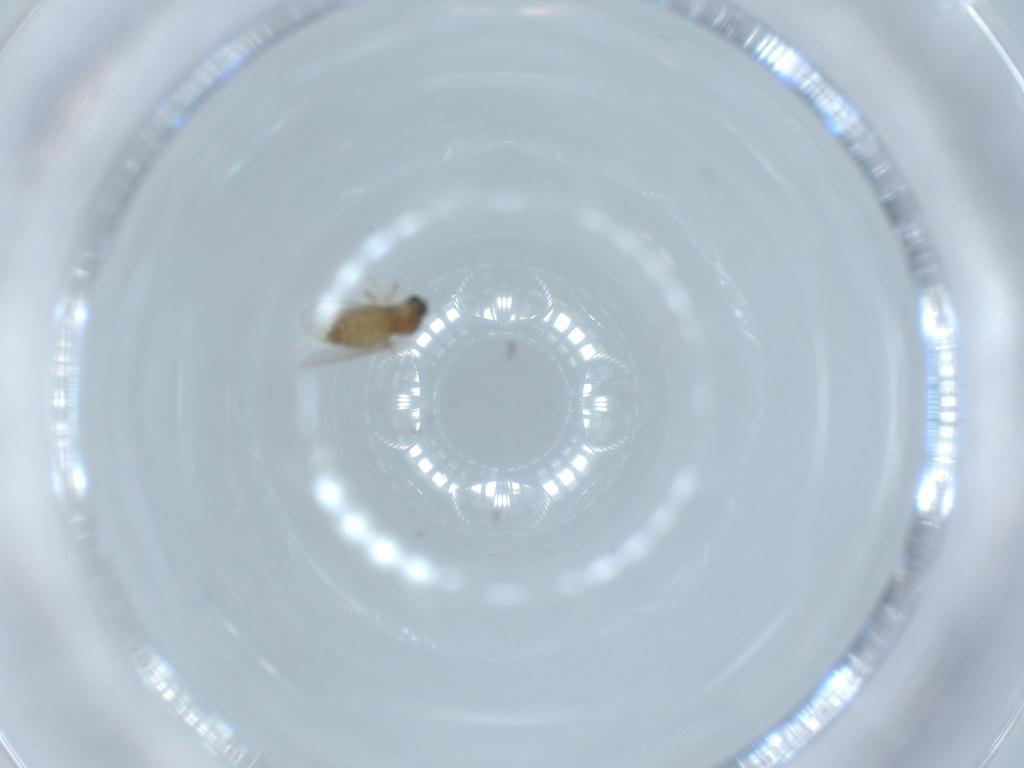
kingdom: Animalia
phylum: Arthropoda
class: Insecta
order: Diptera
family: Cecidomyiidae
